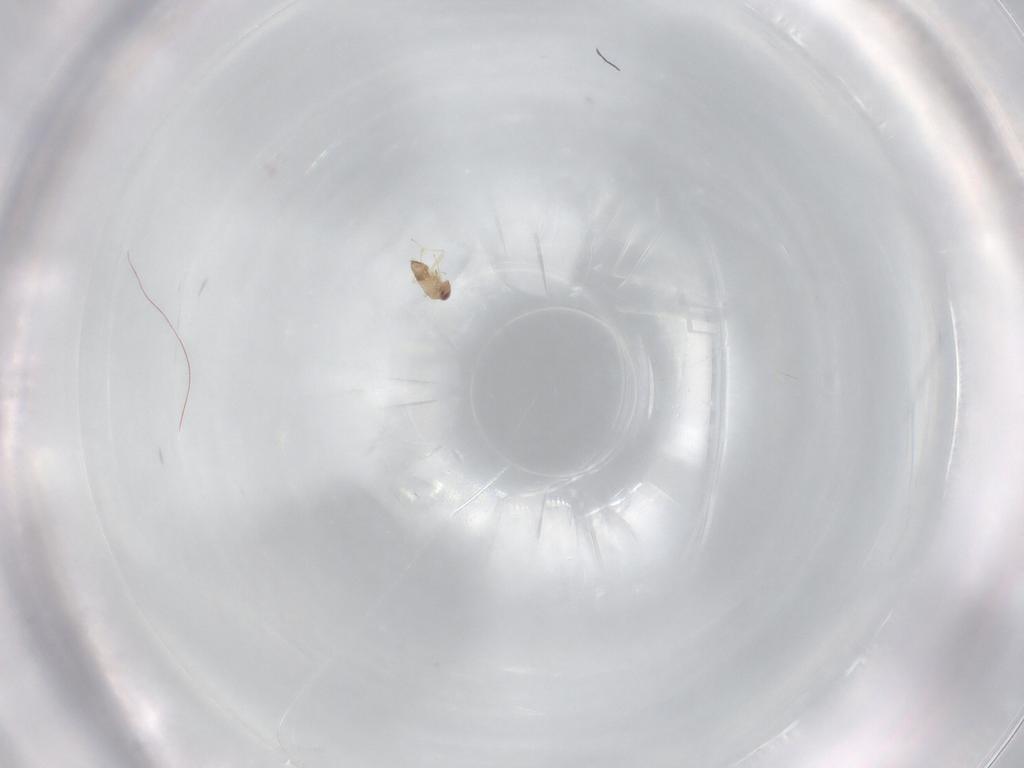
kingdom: Animalia
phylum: Arthropoda
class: Insecta
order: Hymenoptera
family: Trichogrammatidae
